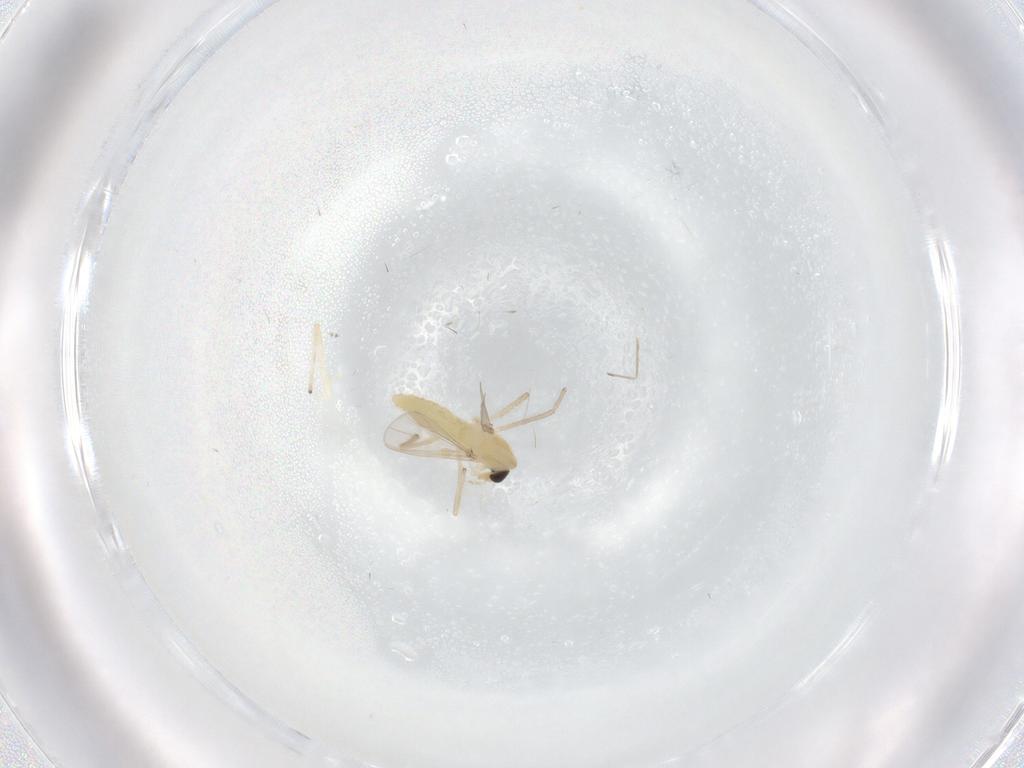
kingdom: Animalia
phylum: Arthropoda
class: Insecta
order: Diptera
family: Chironomidae
